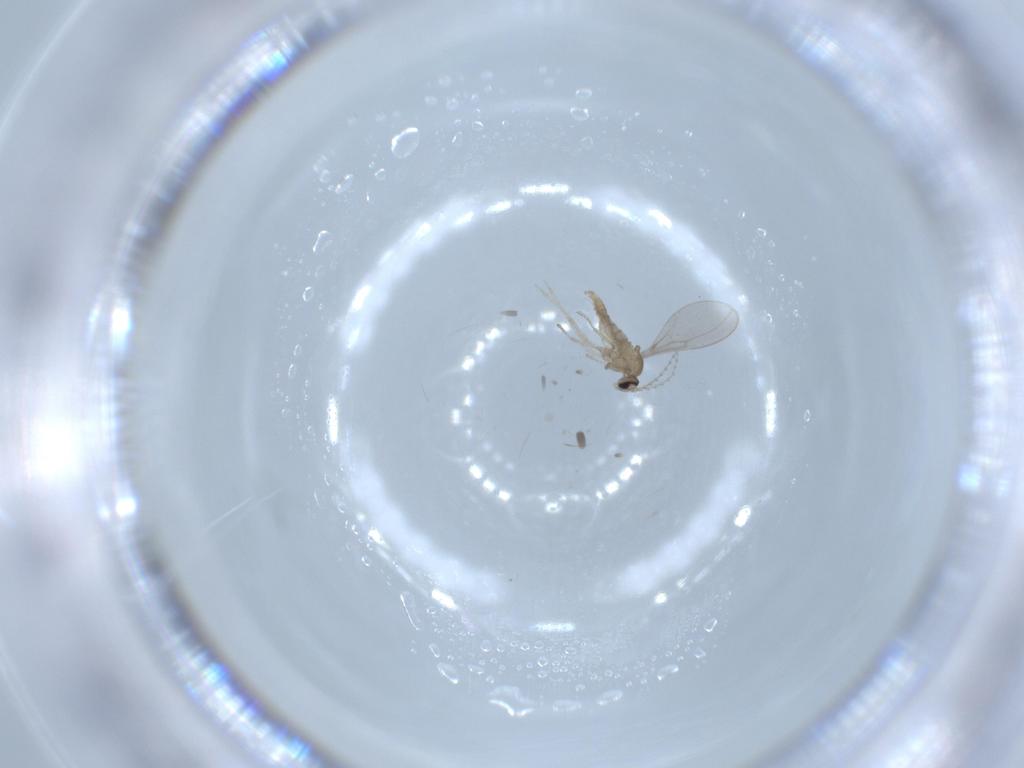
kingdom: Animalia
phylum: Arthropoda
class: Insecta
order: Diptera
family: Cecidomyiidae
